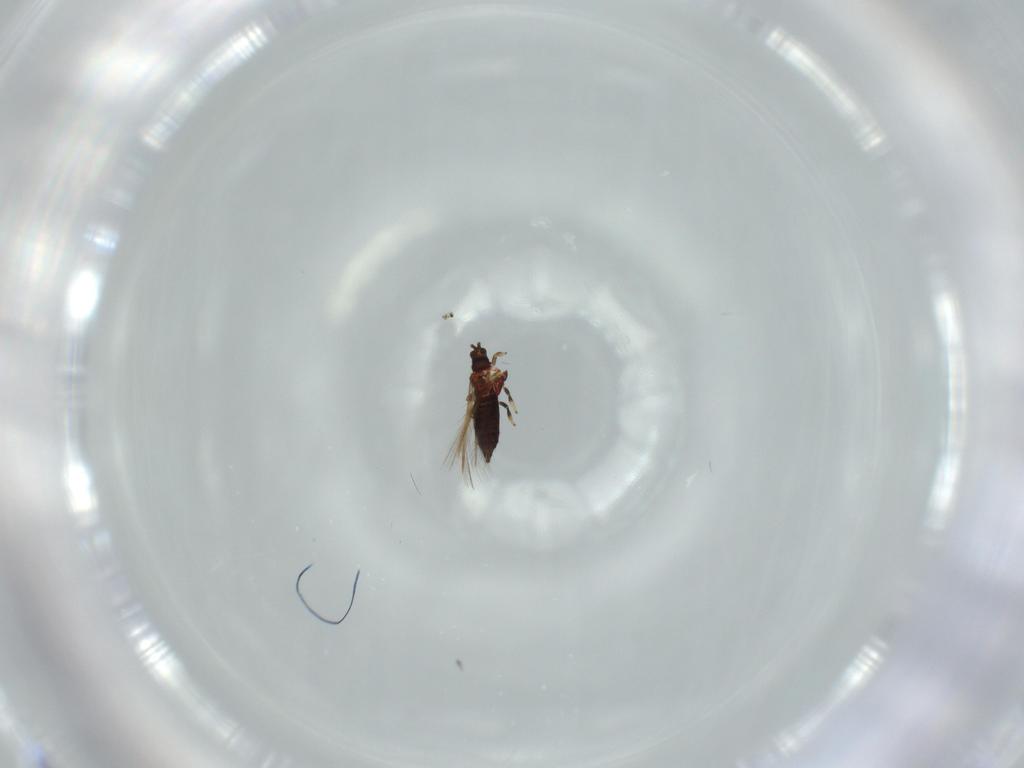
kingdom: Animalia
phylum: Arthropoda
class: Insecta
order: Thysanoptera
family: Thripidae
